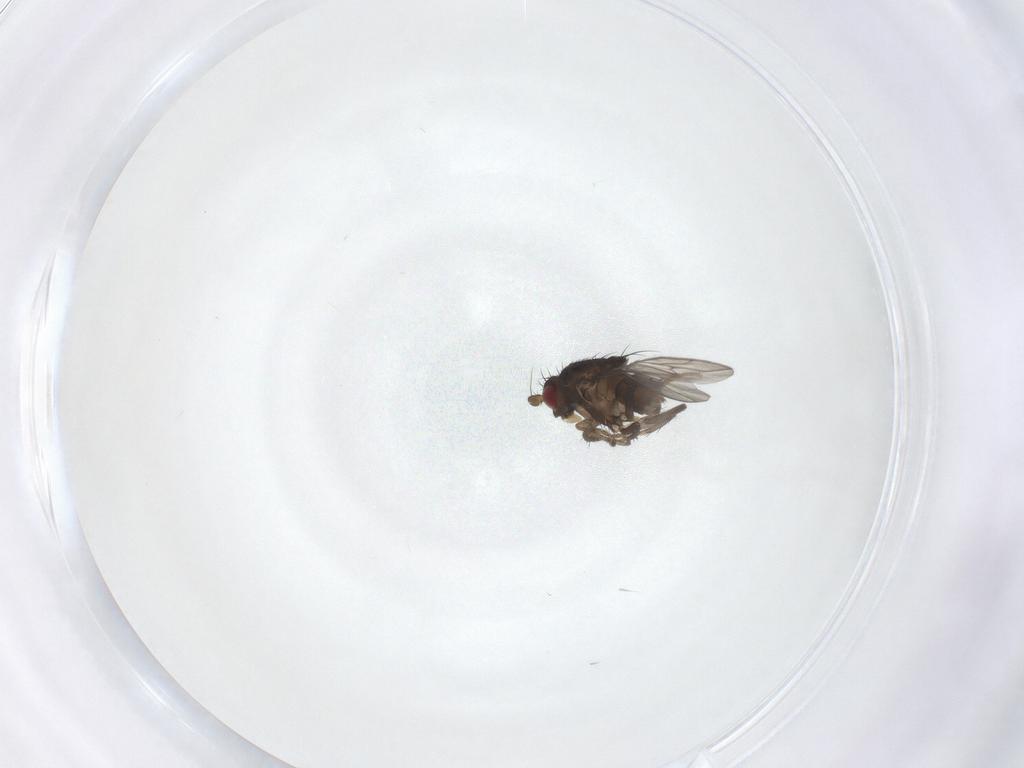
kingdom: Animalia
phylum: Arthropoda
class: Insecta
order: Diptera
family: Sphaeroceridae
